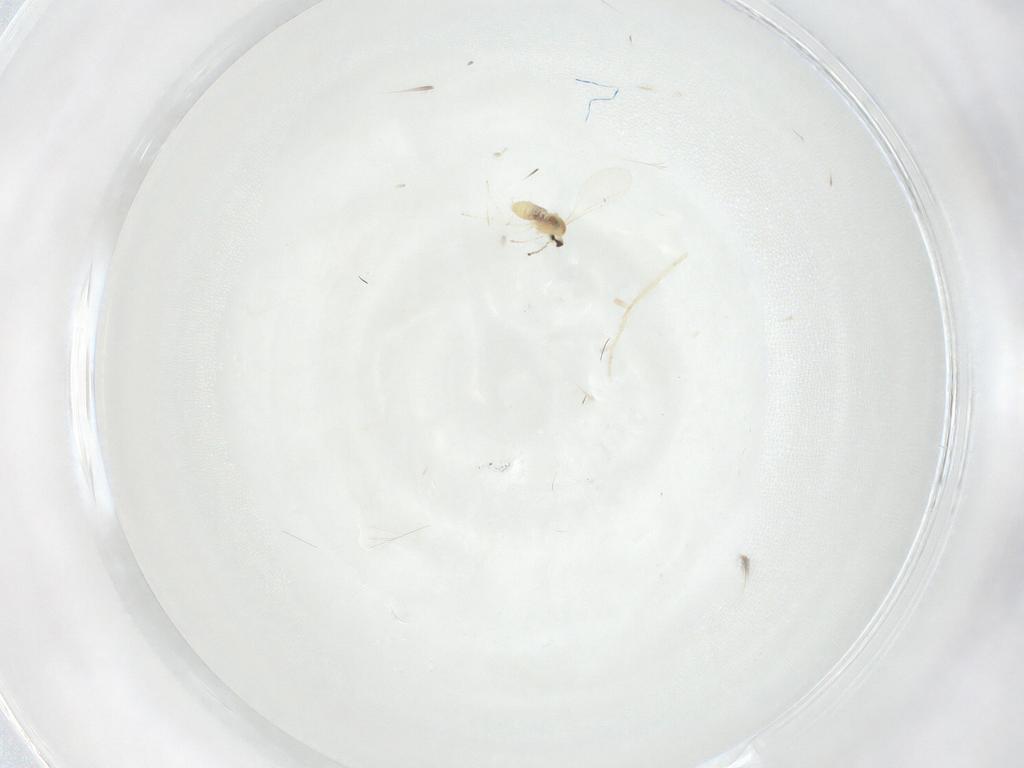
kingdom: Animalia
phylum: Arthropoda
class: Insecta
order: Diptera
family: Cecidomyiidae
